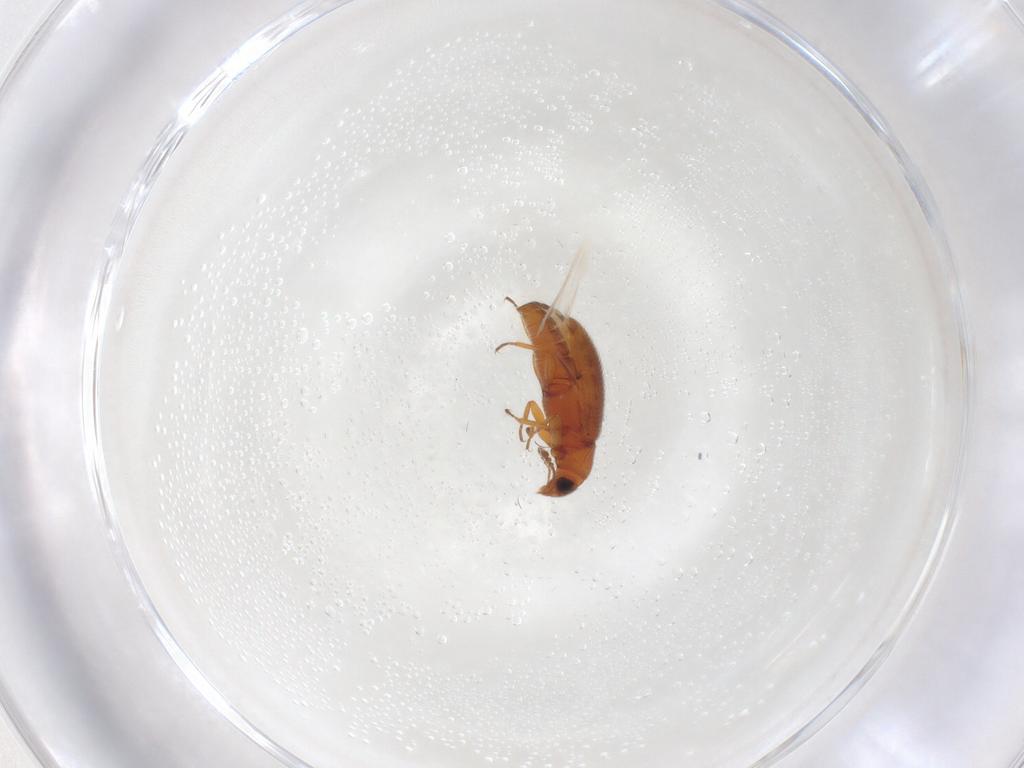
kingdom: Animalia
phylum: Arthropoda
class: Insecta
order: Coleoptera
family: Latridiidae
